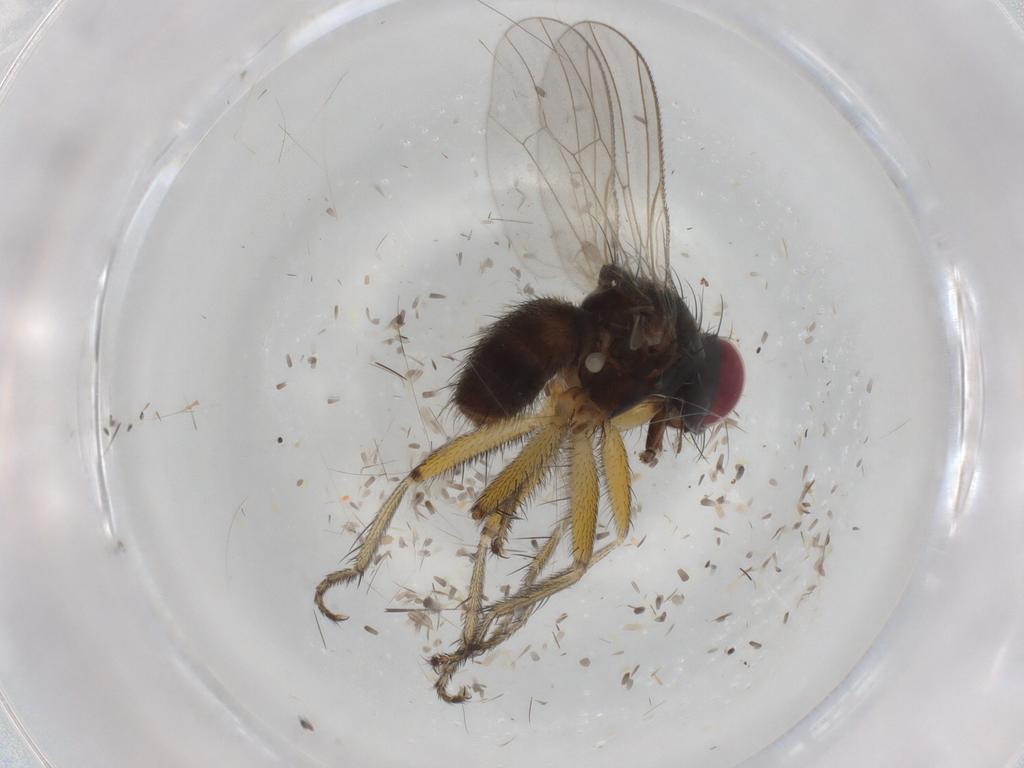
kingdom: Animalia
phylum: Arthropoda
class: Insecta
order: Diptera
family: Muscidae
